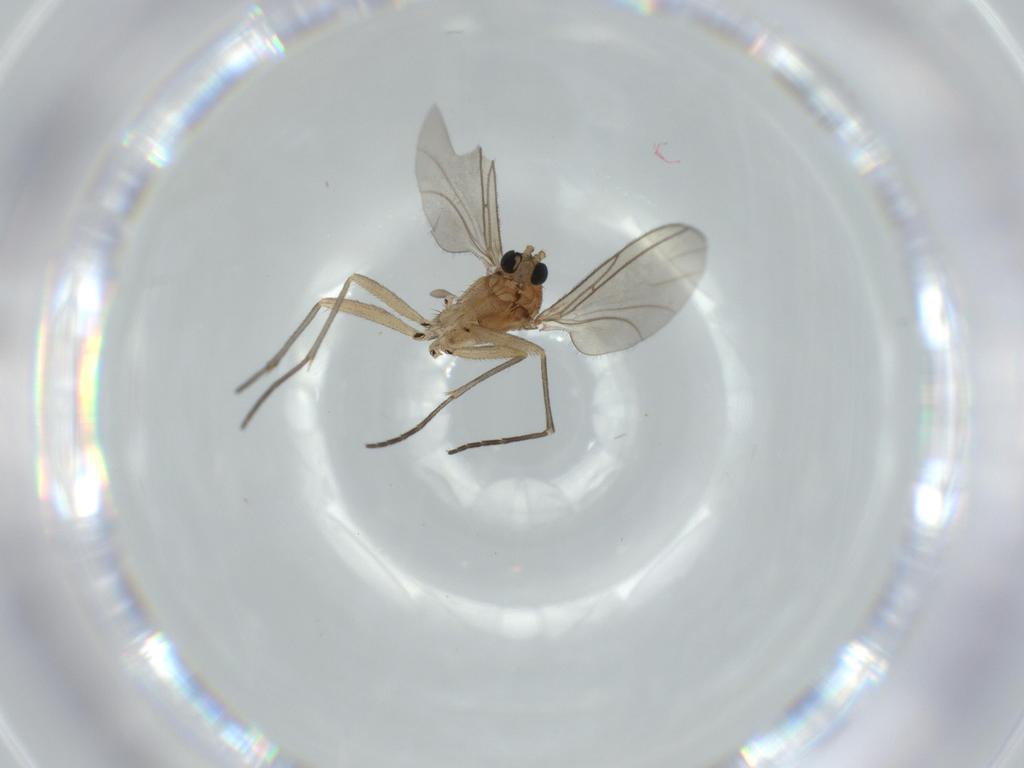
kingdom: Animalia
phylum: Arthropoda
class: Insecta
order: Diptera
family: Sciaridae
